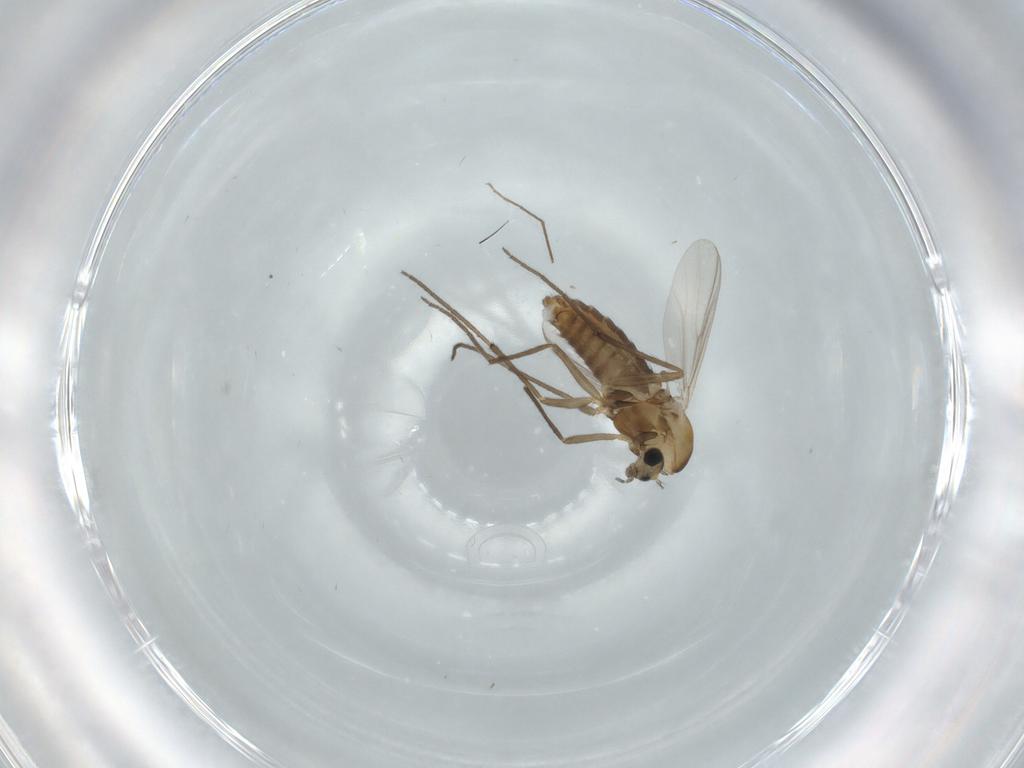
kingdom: Animalia
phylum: Arthropoda
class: Insecta
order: Diptera
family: Chironomidae
